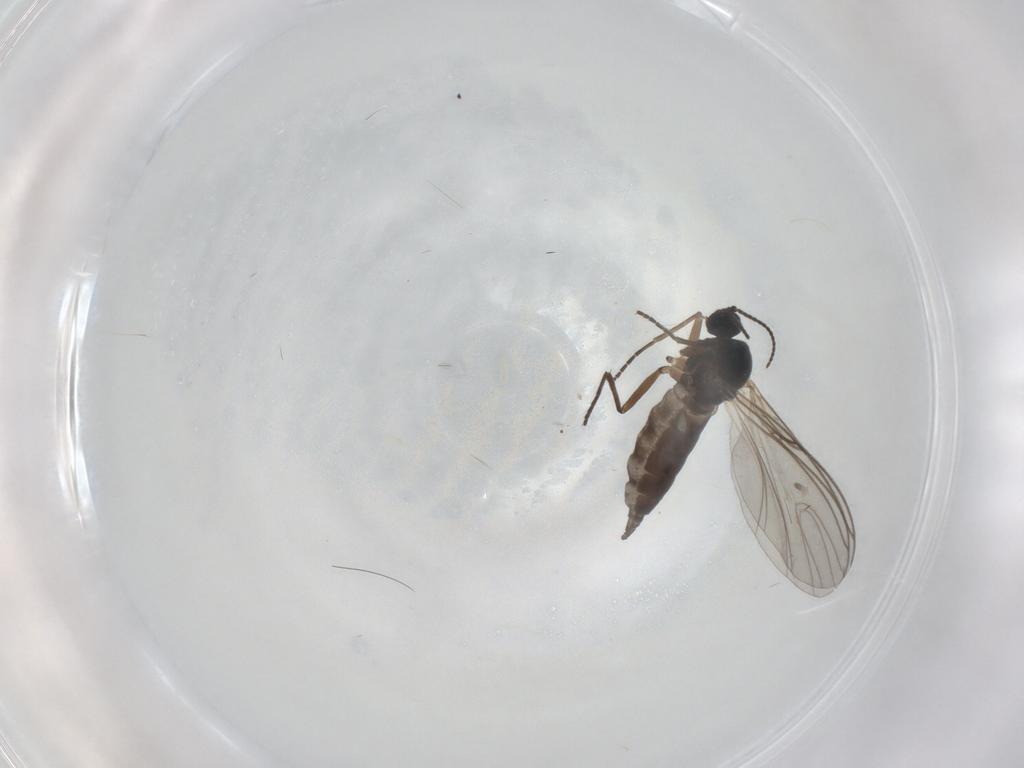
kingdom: Animalia
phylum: Arthropoda
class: Insecta
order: Diptera
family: Sciaridae
